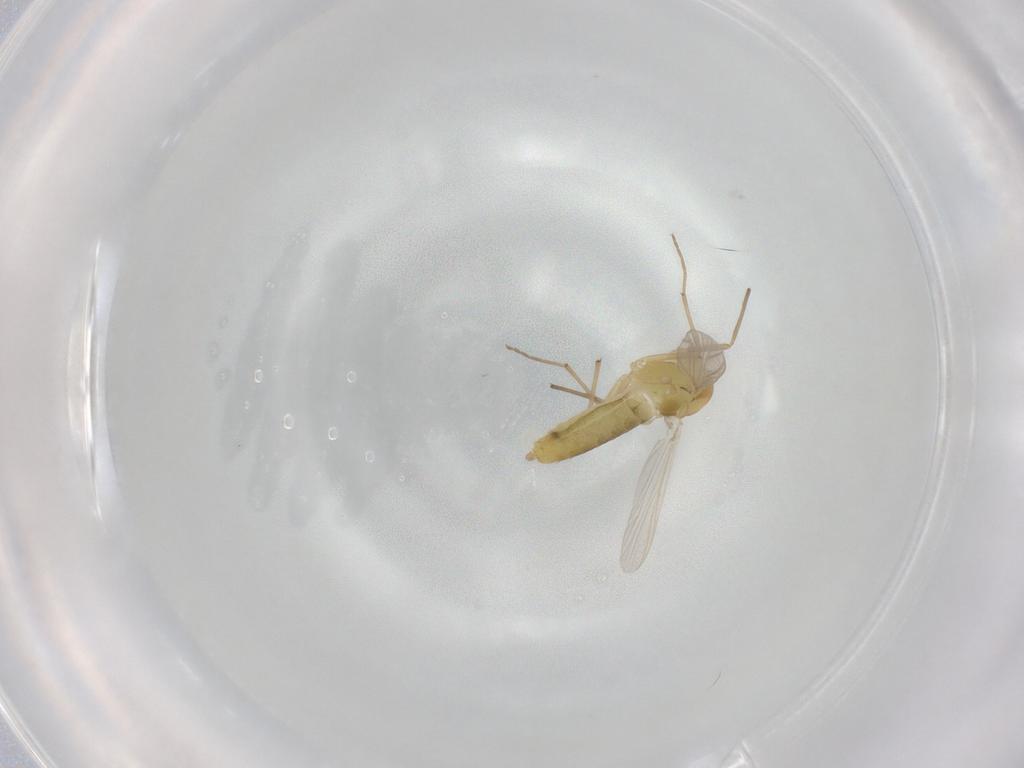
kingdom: Animalia
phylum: Arthropoda
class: Insecta
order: Diptera
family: Chironomidae
